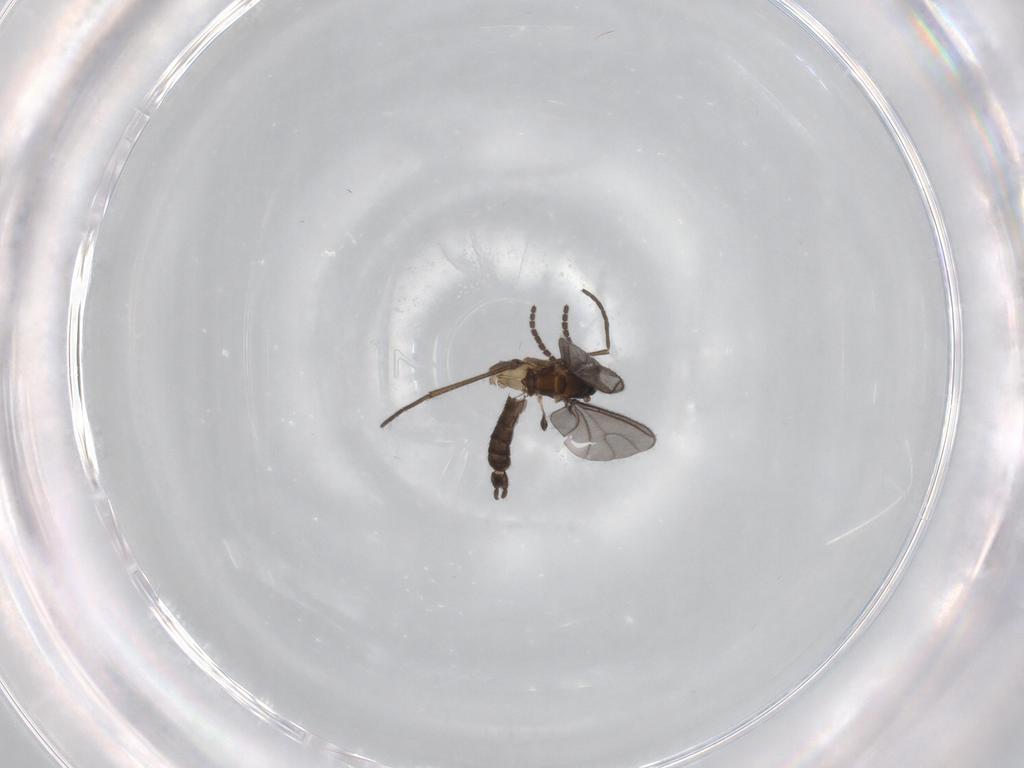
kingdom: Animalia
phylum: Arthropoda
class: Insecta
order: Diptera
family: Sciaridae
